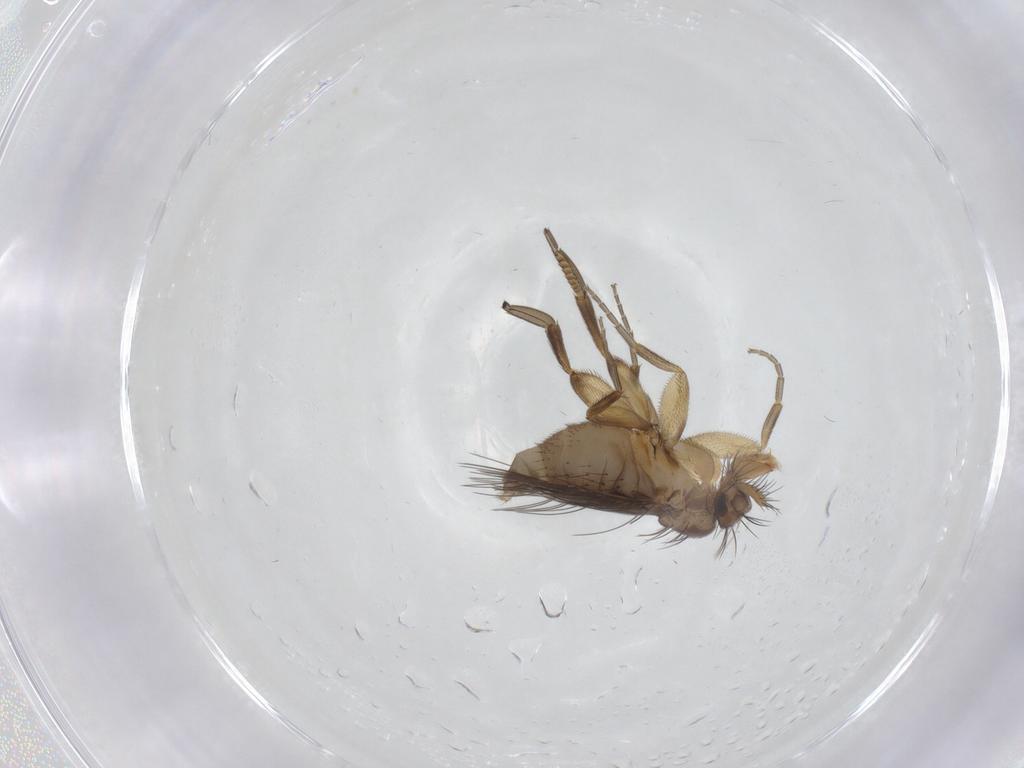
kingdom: Animalia
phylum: Arthropoda
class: Insecta
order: Diptera
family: Phoridae
